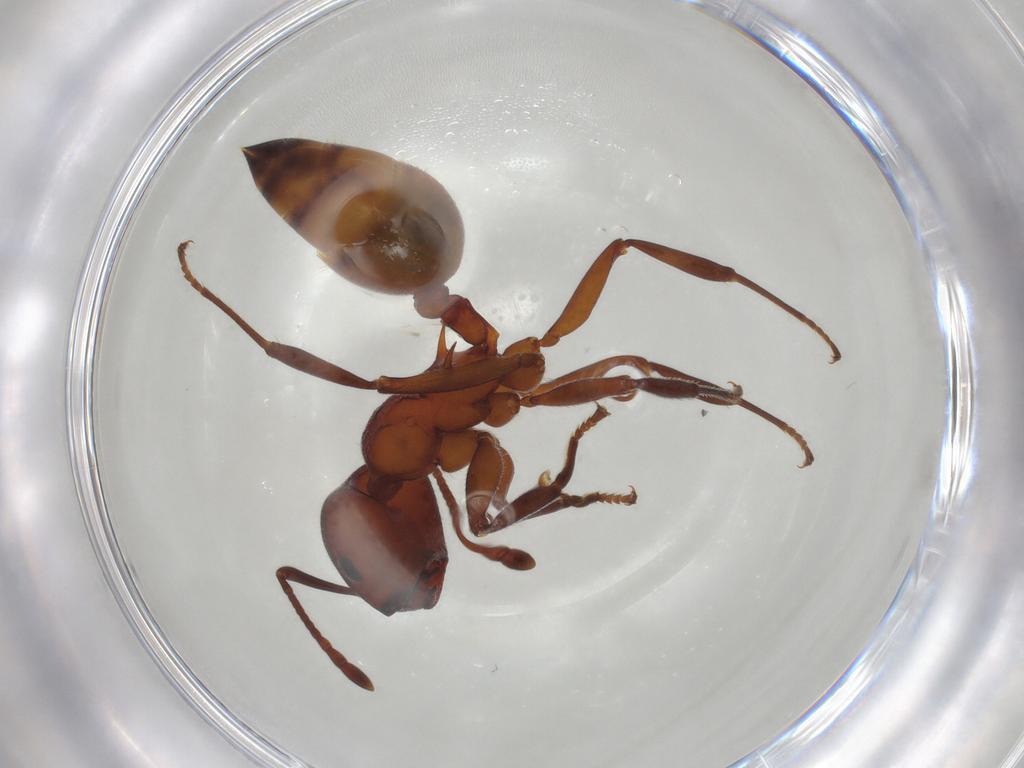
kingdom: Animalia
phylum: Arthropoda
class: Insecta
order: Hymenoptera
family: Formicidae
